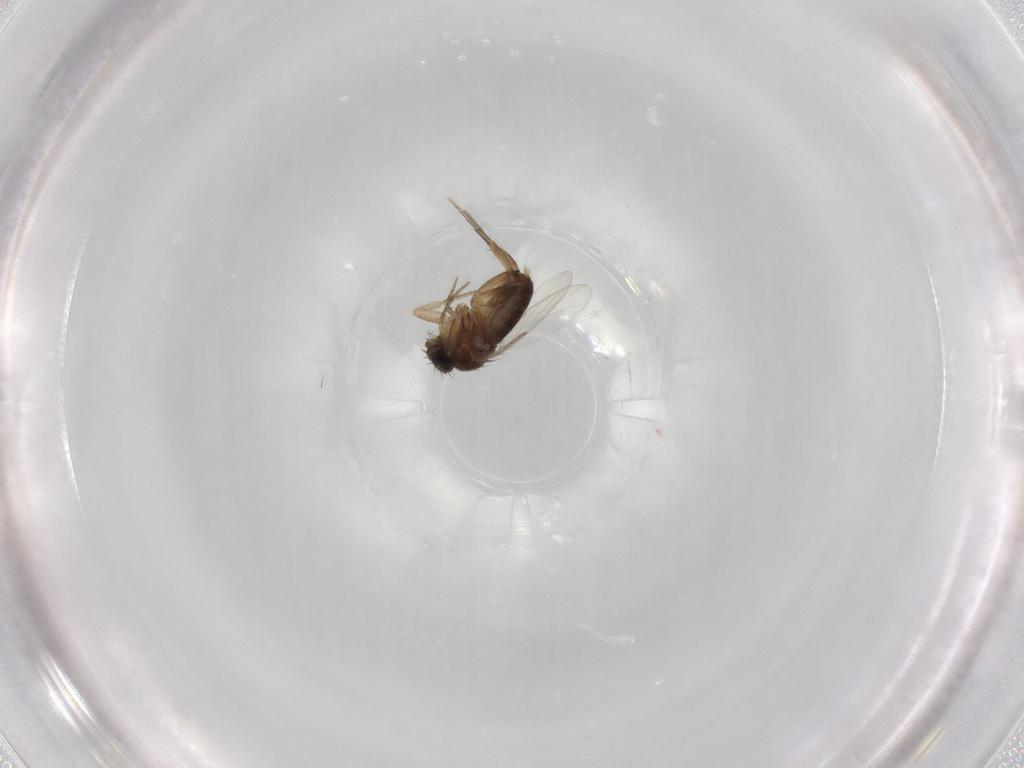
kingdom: Animalia
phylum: Arthropoda
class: Insecta
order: Diptera
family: Phoridae
